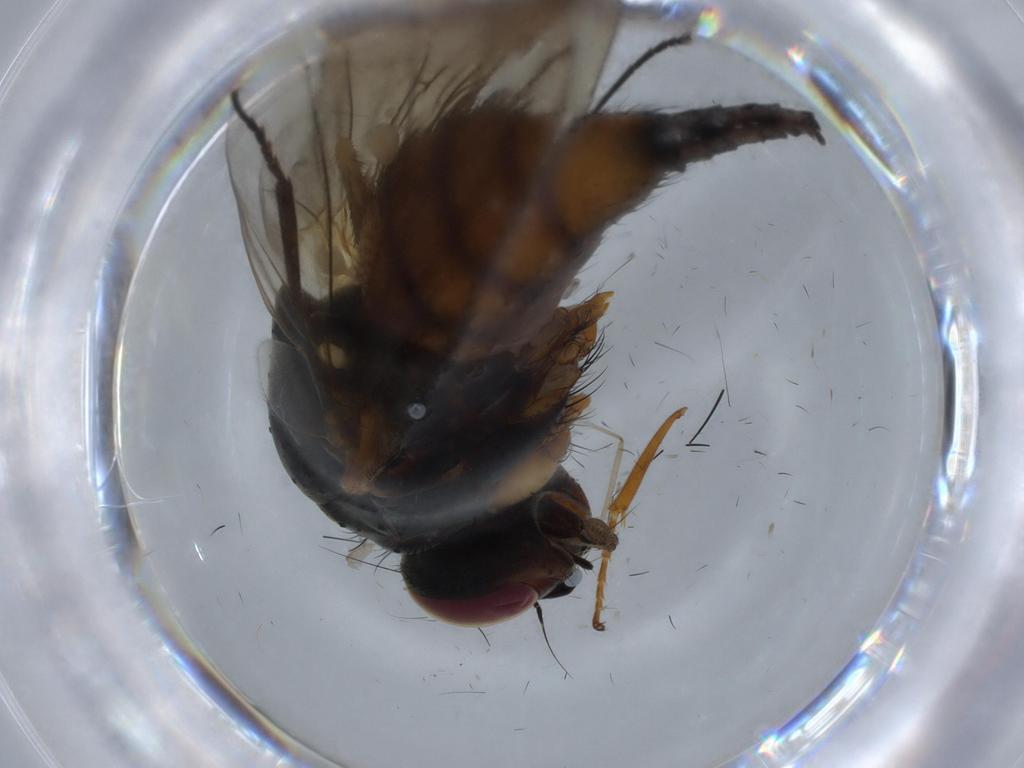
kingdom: Animalia
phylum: Arthropoda
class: Insecta
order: Diptera
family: Anthomyiidae
